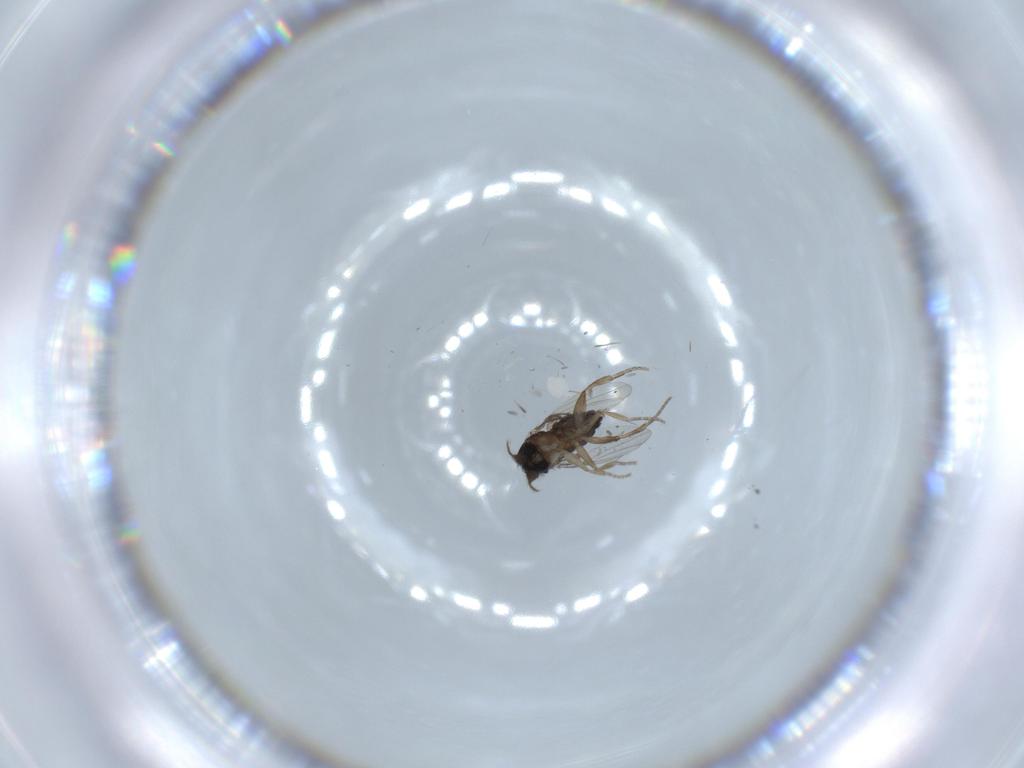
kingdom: Animalia
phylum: Arthropoda
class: Insecta
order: Diptera
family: Phoridae
